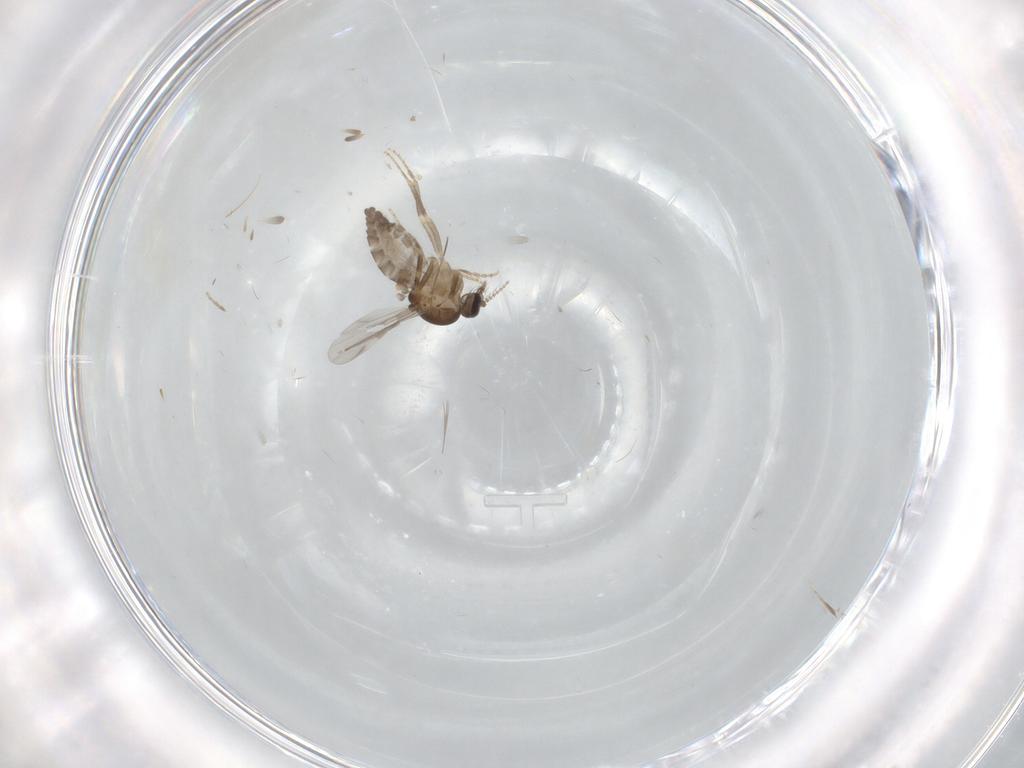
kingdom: Animalia
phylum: Arthropoda
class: Insecta
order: Diptera
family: Ceratopogonidae
